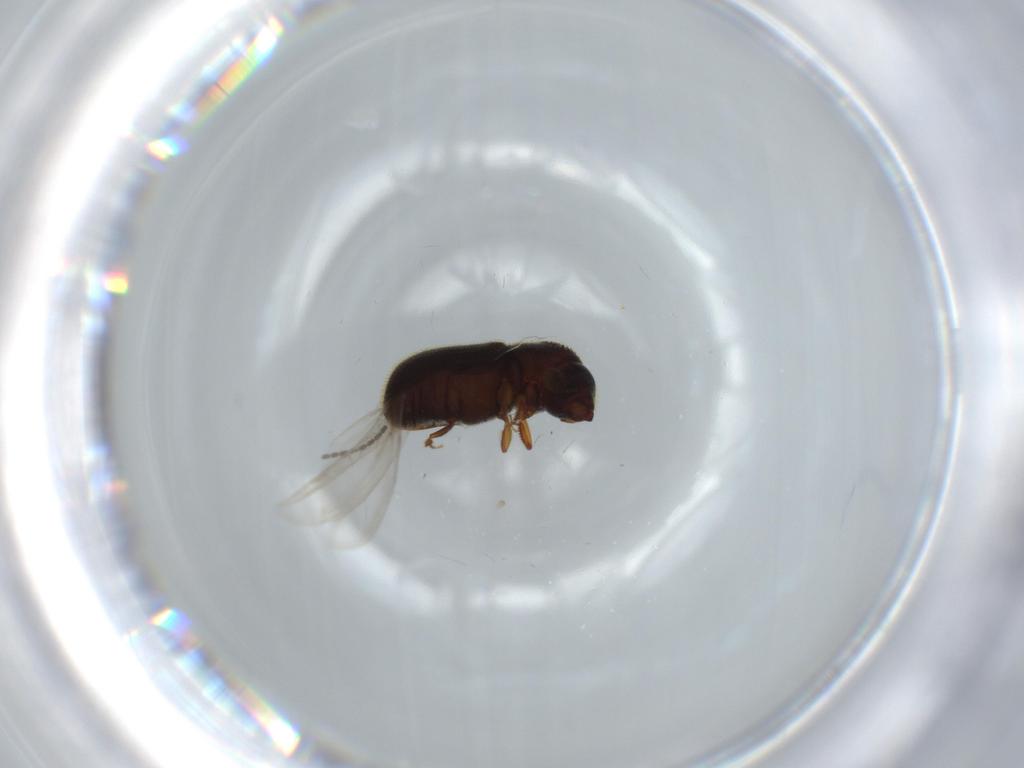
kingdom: Animalia
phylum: Arthropoda
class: Insecta
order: Coleoptera
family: Curculionidae
